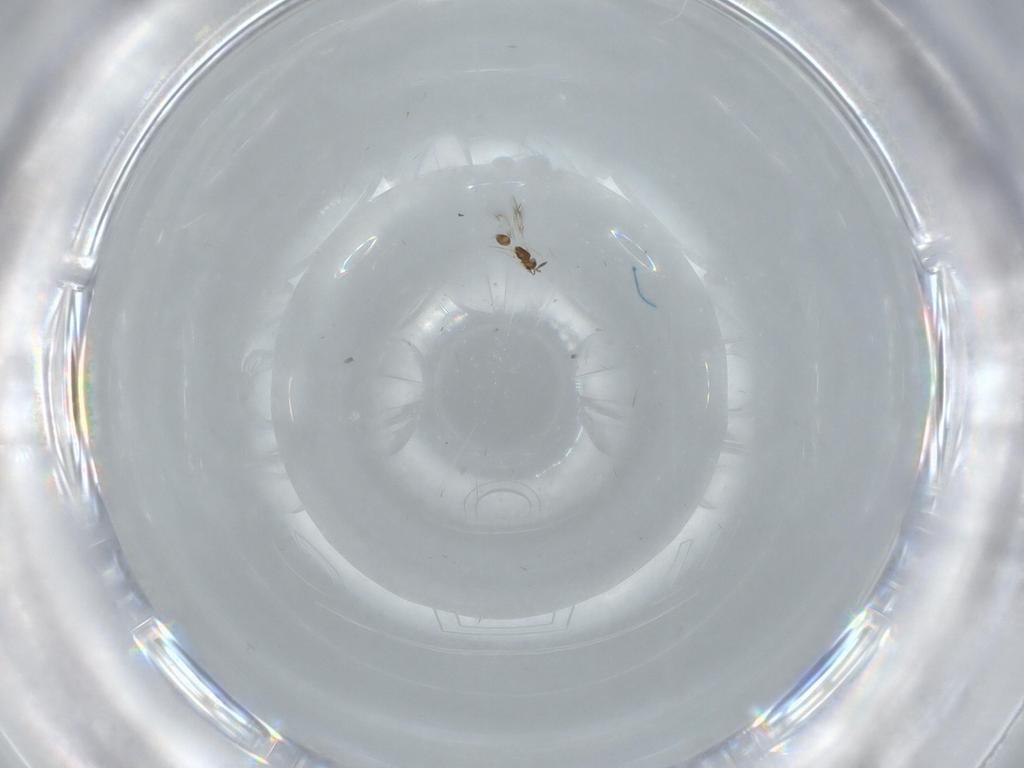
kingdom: Animalia
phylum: Arthropoda
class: Insecta
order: Hymenoptera
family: Mymarommatidae
